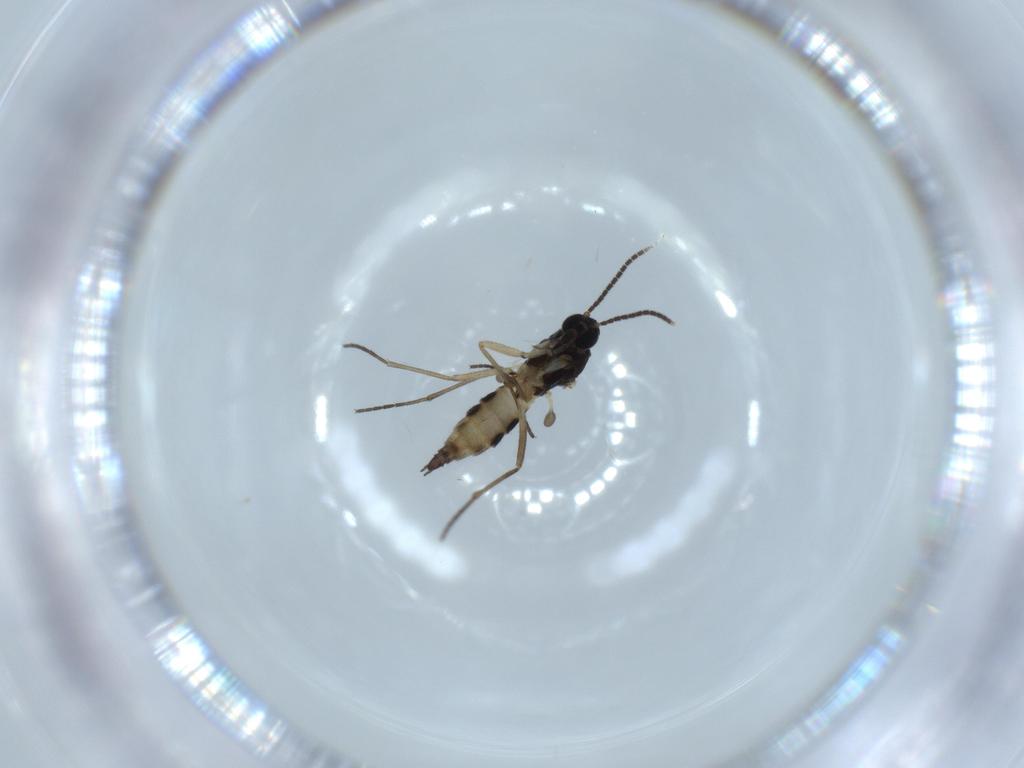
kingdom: Animalia
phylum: Arthropoda
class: Insecta
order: Diptera
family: Sciaridae
